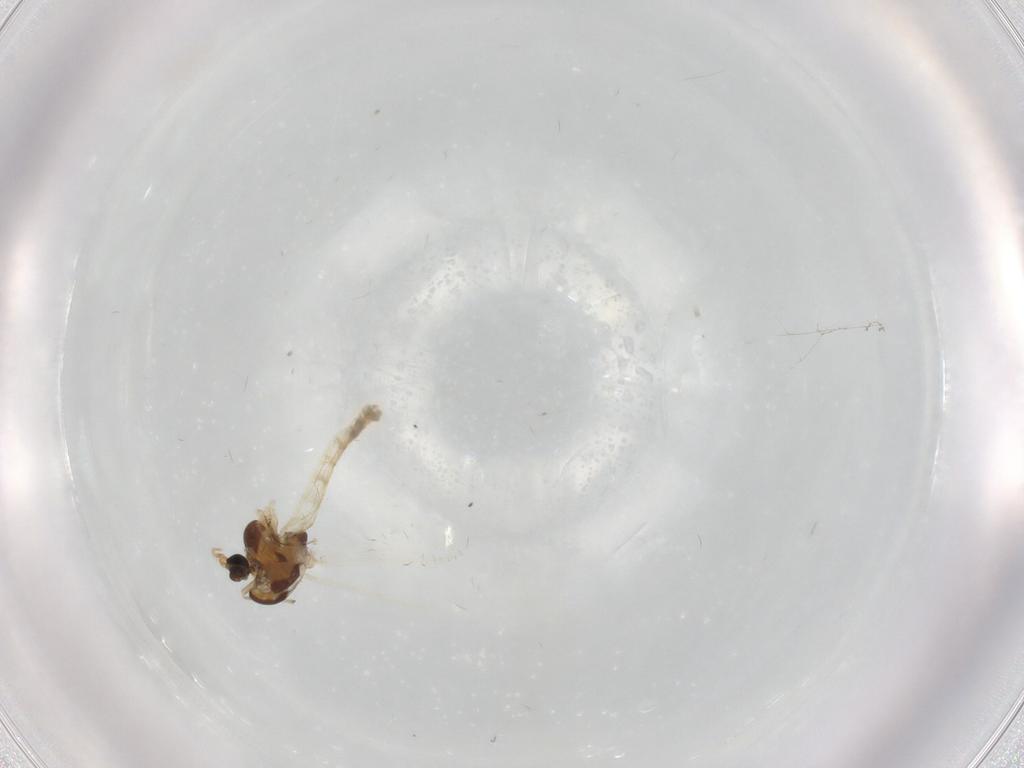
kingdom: Animalia
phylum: Arthropoda
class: Insecta
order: Diptera
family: Chironomidae
